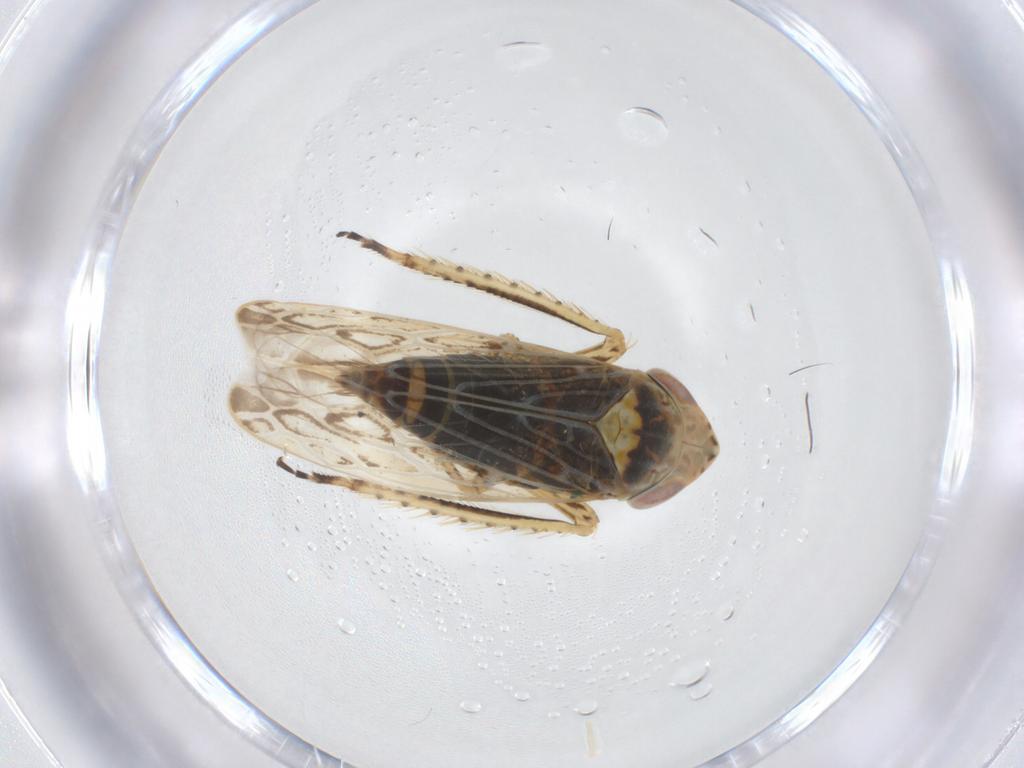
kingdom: Animalia
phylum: Arthropoda
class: Insecta
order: Hemiptera
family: Cicadellidae
